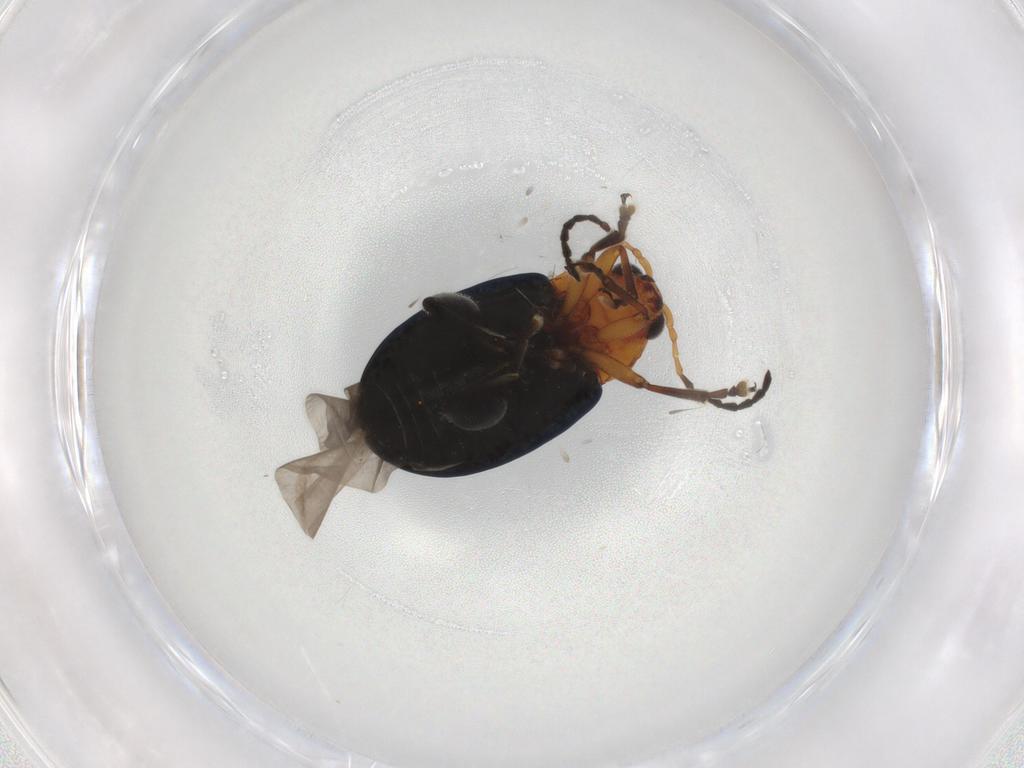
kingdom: Animalia
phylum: Arthropoda
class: Insecta
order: Coleoptera
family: Chrysomelidae
